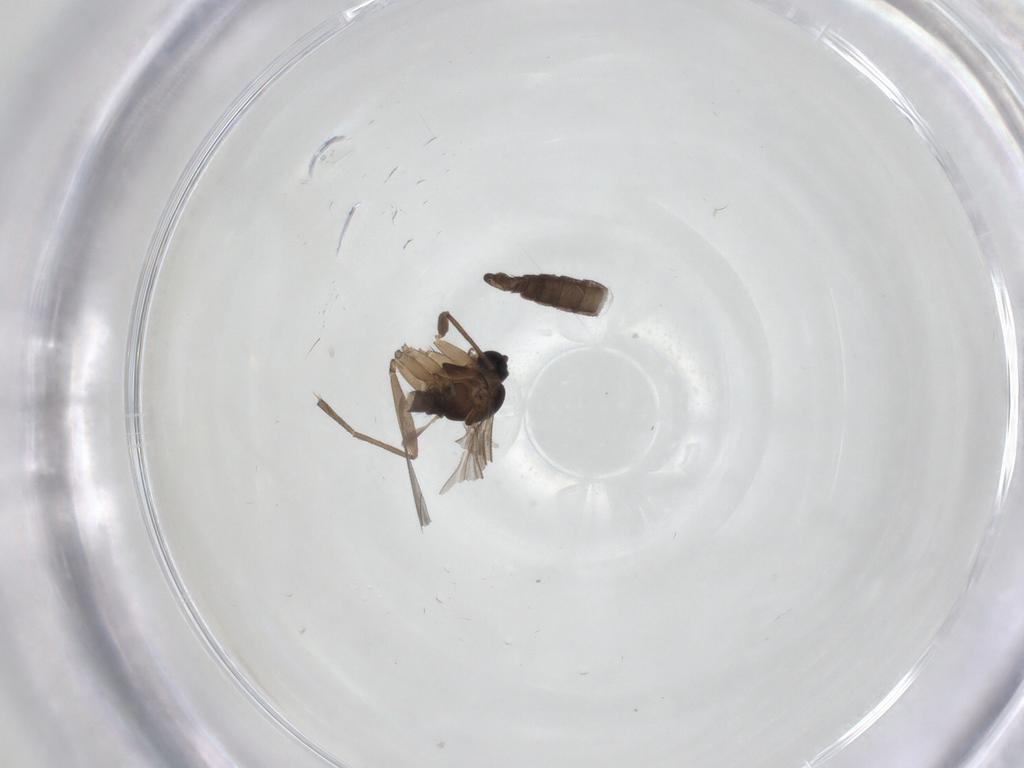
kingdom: Animalia
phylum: Arthropoda
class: Insecta
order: Diptera
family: Sciaridae
